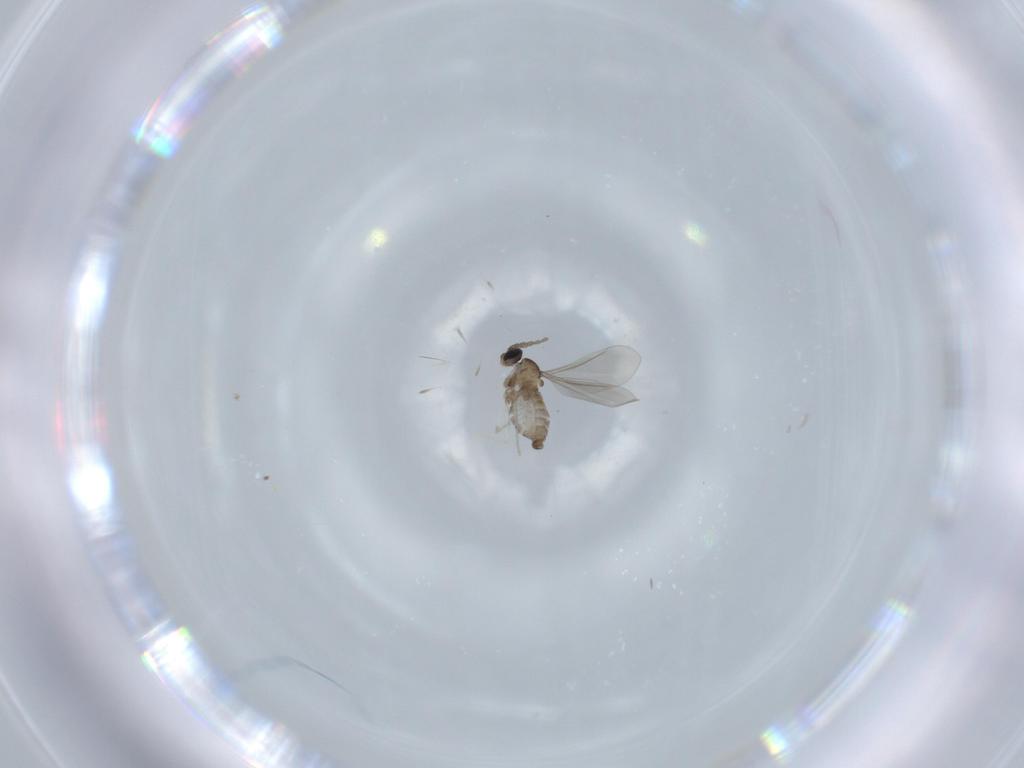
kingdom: Animalia
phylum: Arthropoda
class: Insecta
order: Diptera
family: Cecidomyiidae
